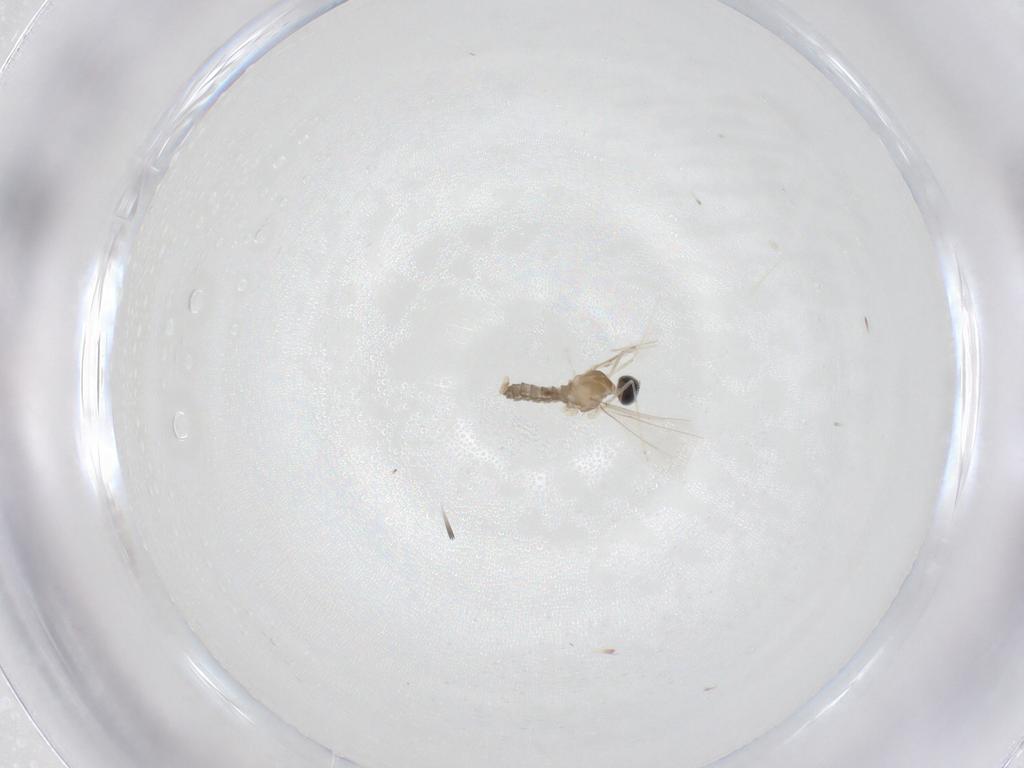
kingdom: Animalia
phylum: Arthropoda
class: Insecta
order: Diptera
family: Cecidomyiidae
